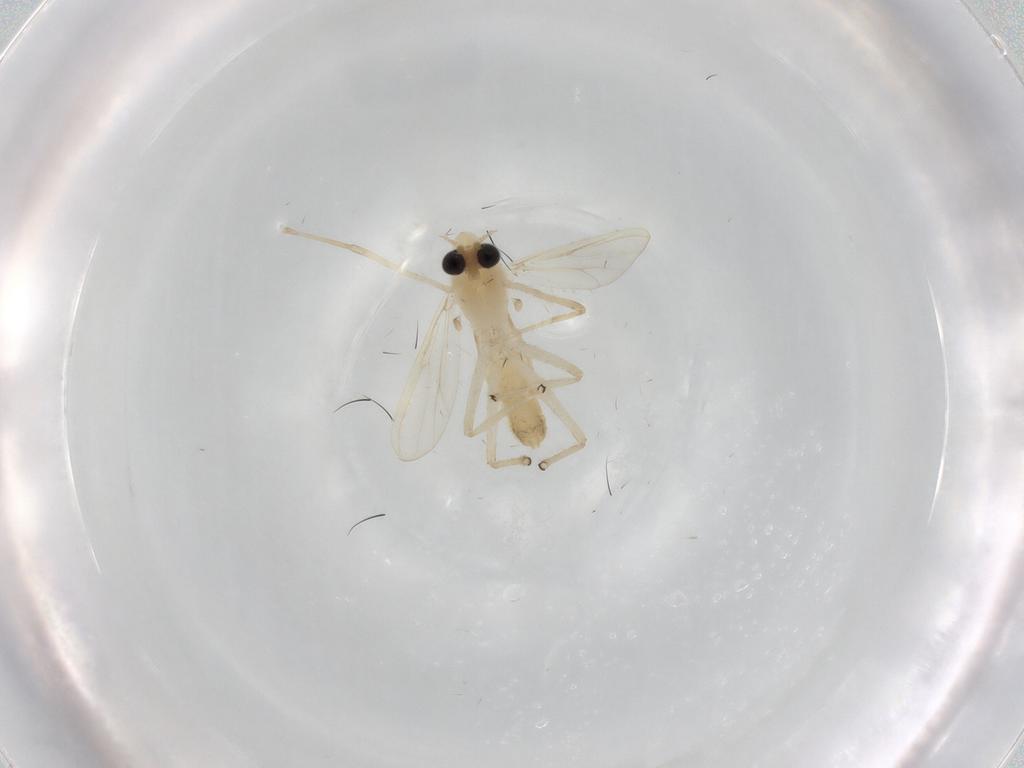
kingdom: Animalia
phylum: Arthropoda
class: Insecta
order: Diptera
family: Chironomidae
